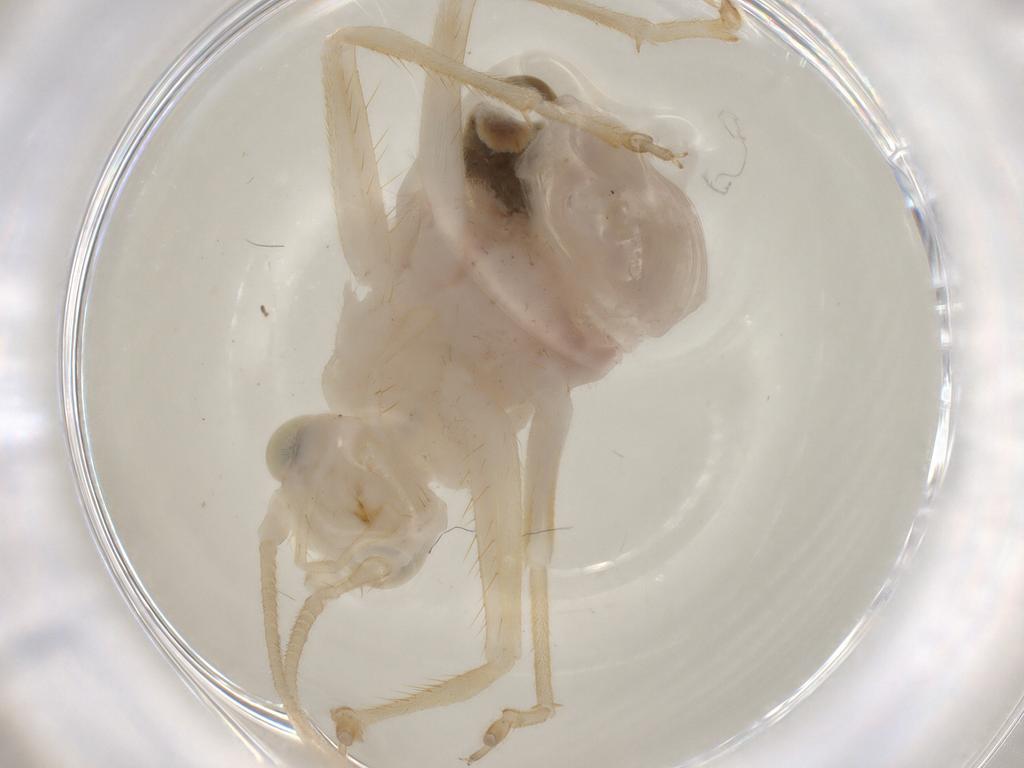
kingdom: Animalia
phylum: Arthropoda
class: Insecta
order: Orthoptera
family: Trigonidiidae
